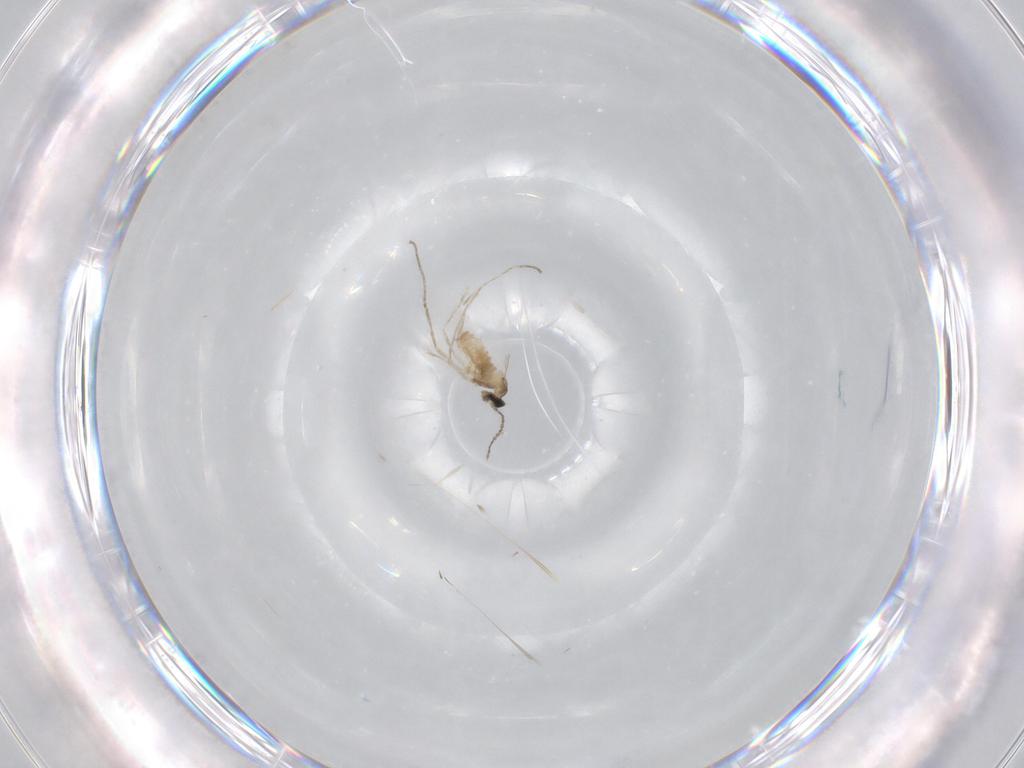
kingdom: Animalia
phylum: Arthropoda
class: Insecta
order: Diptera
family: Cecidomyiidae
